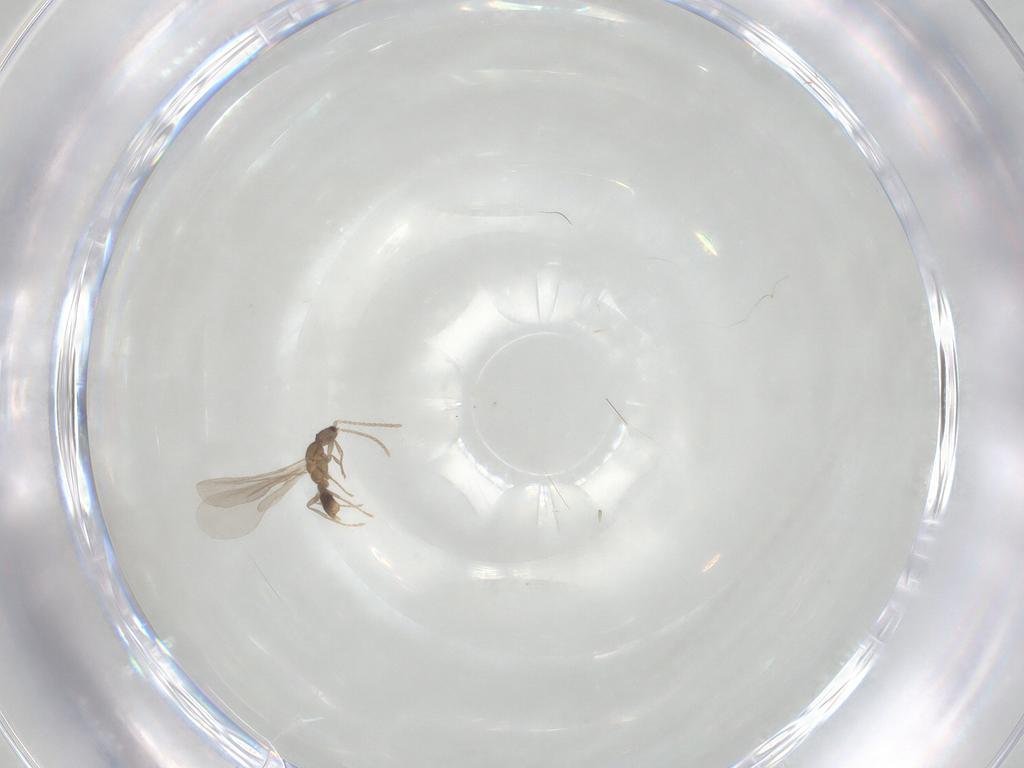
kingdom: Animalia
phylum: Arthropoda
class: Insecta
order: Hymenoptera
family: Formicidae
